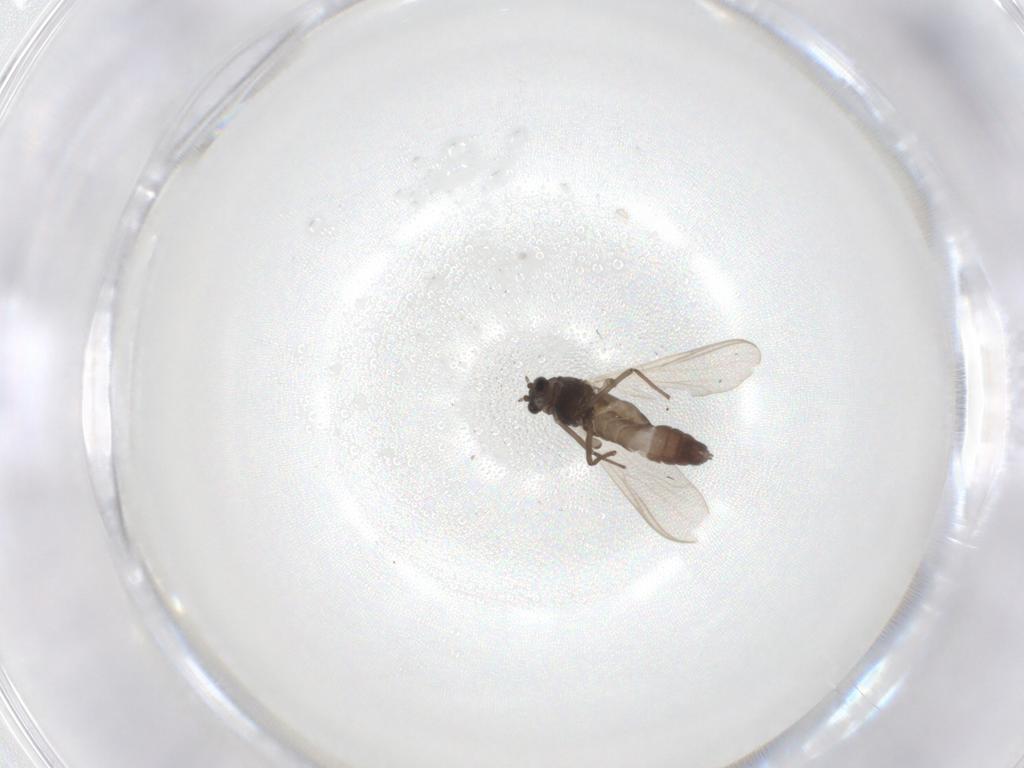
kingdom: Animalia
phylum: Arthropoda
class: Insecta
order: Diptera
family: Chironomidae
